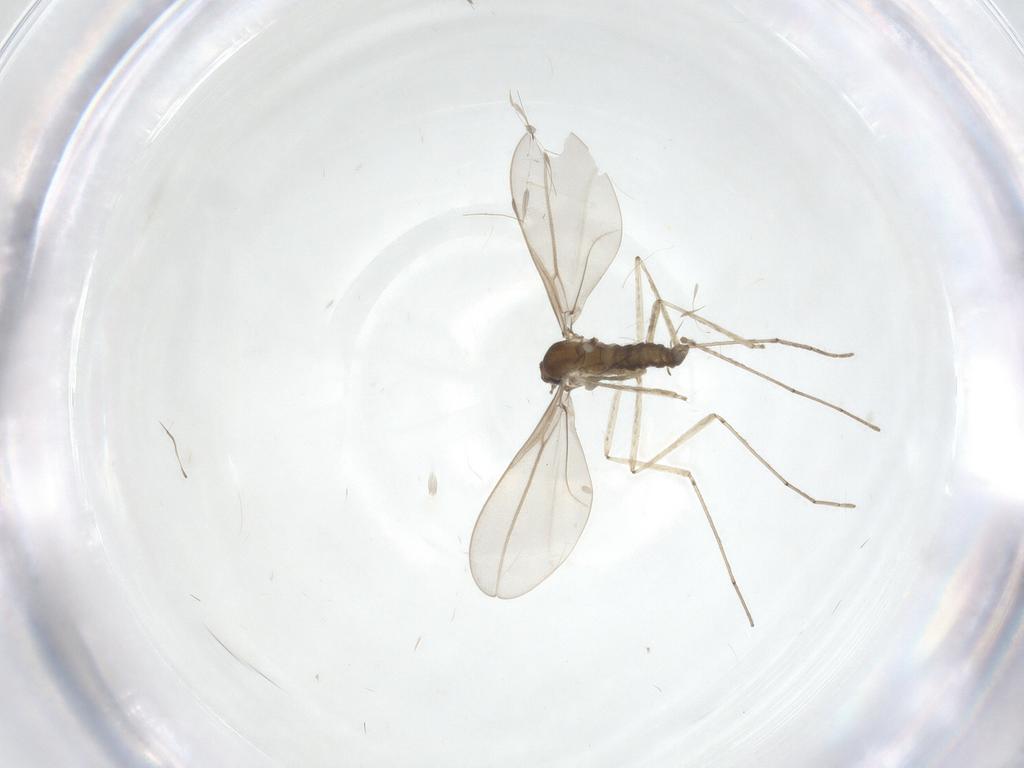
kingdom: Animalia
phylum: Arthropoda
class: Insecta
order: Diptera
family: Cecidomyiidae
